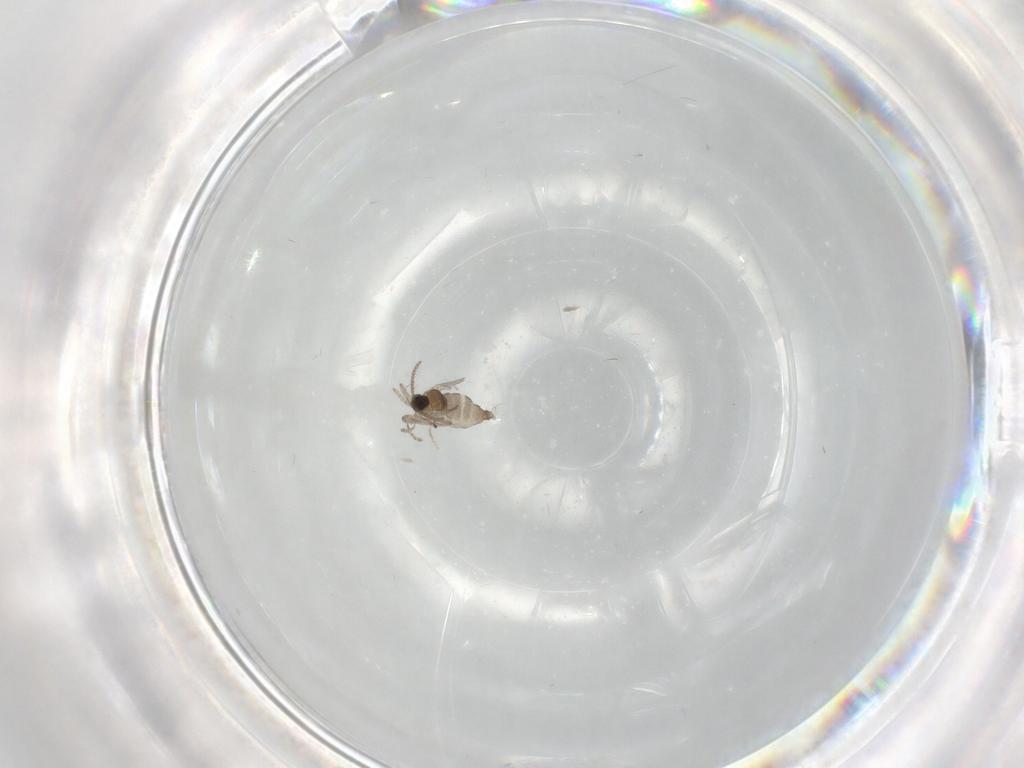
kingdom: Animalia
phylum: Arthropoda
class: Insecta
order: Diptera
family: Cecidomyiidae
